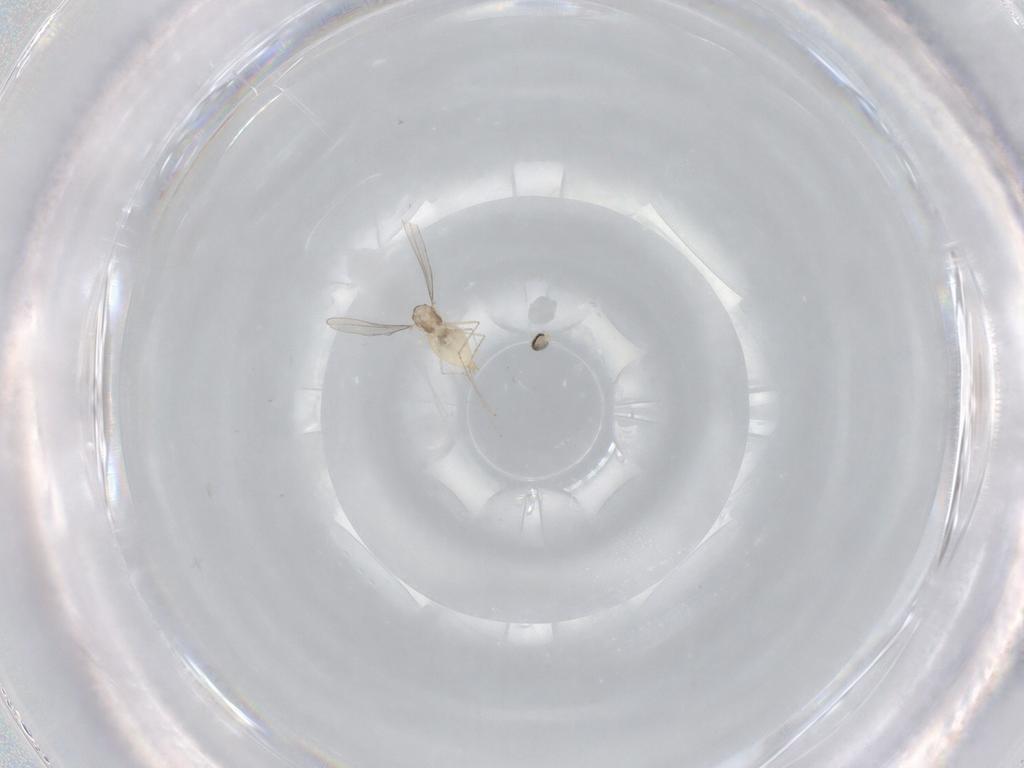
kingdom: Animalia
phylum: Arthropoda
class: Insecta
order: Diptera
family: Cecidomyiidae
